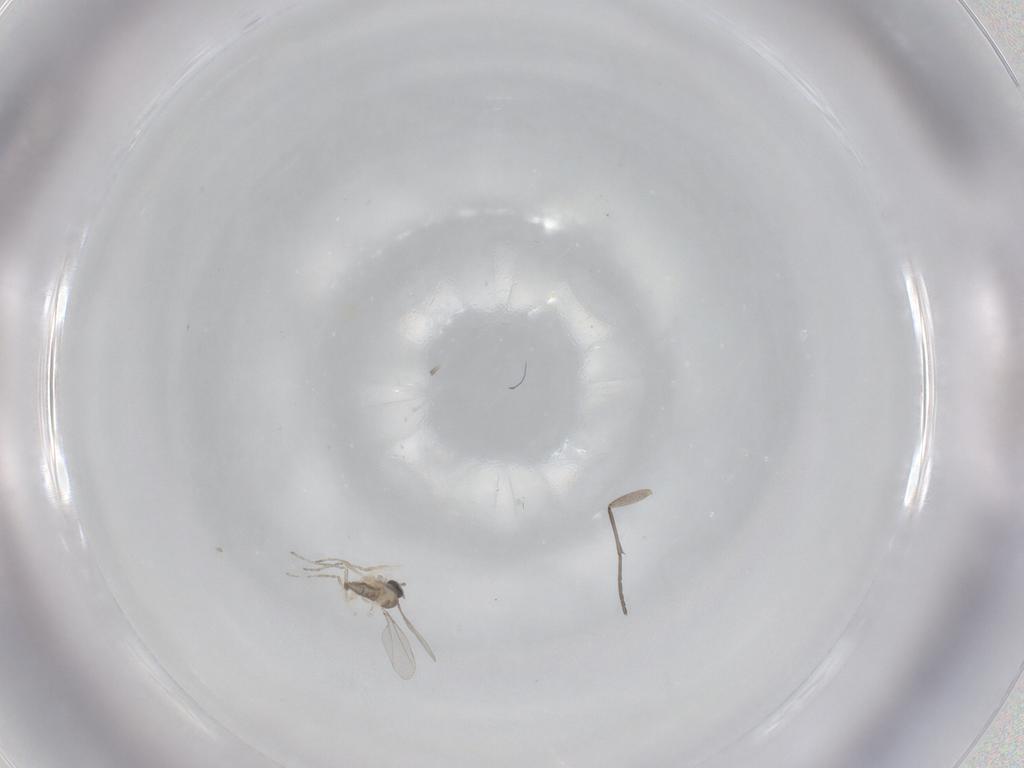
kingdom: Animalia
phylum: Arthropoda
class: Insecta
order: Diptera
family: Cecidomyiidae
